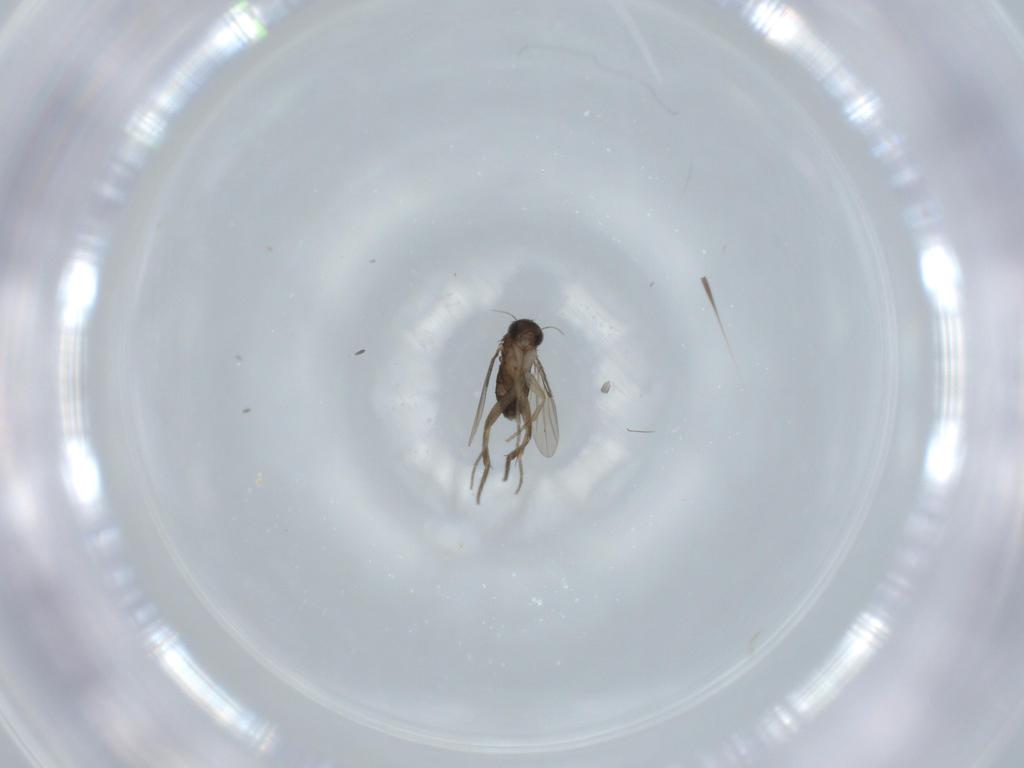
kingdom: Animalia
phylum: Arthropoda
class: Insecta
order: Diptera
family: Phoridae
